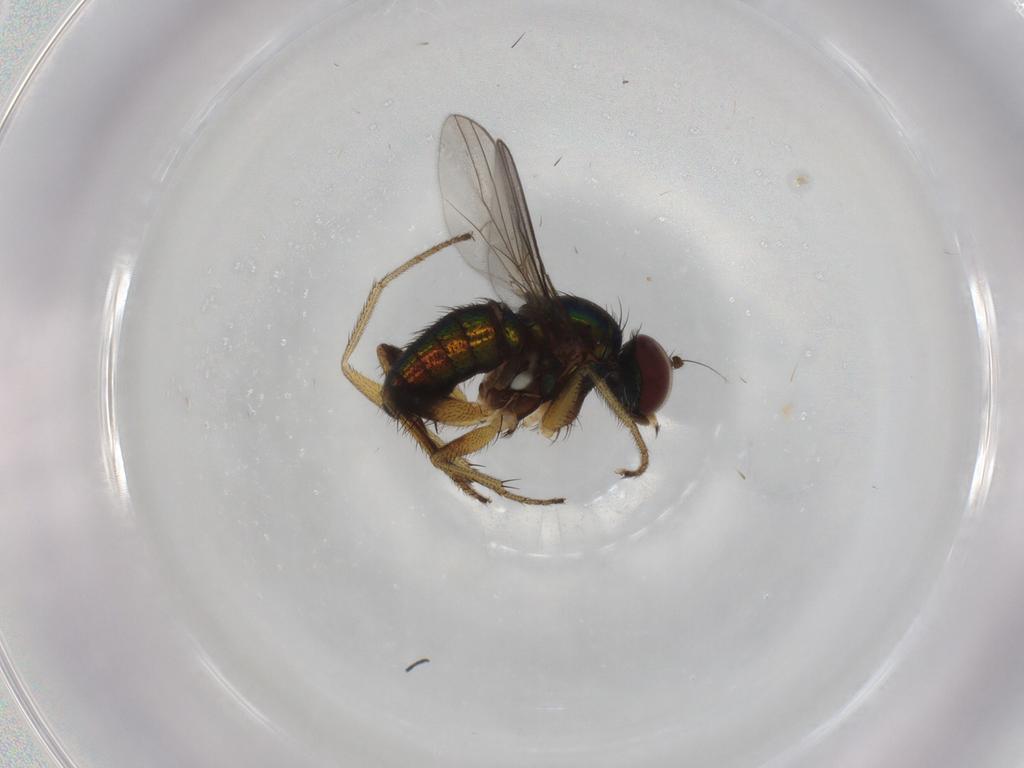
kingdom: Animalia
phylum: Arthropoda
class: Insecta
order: Diptera
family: Dolichopodidae
